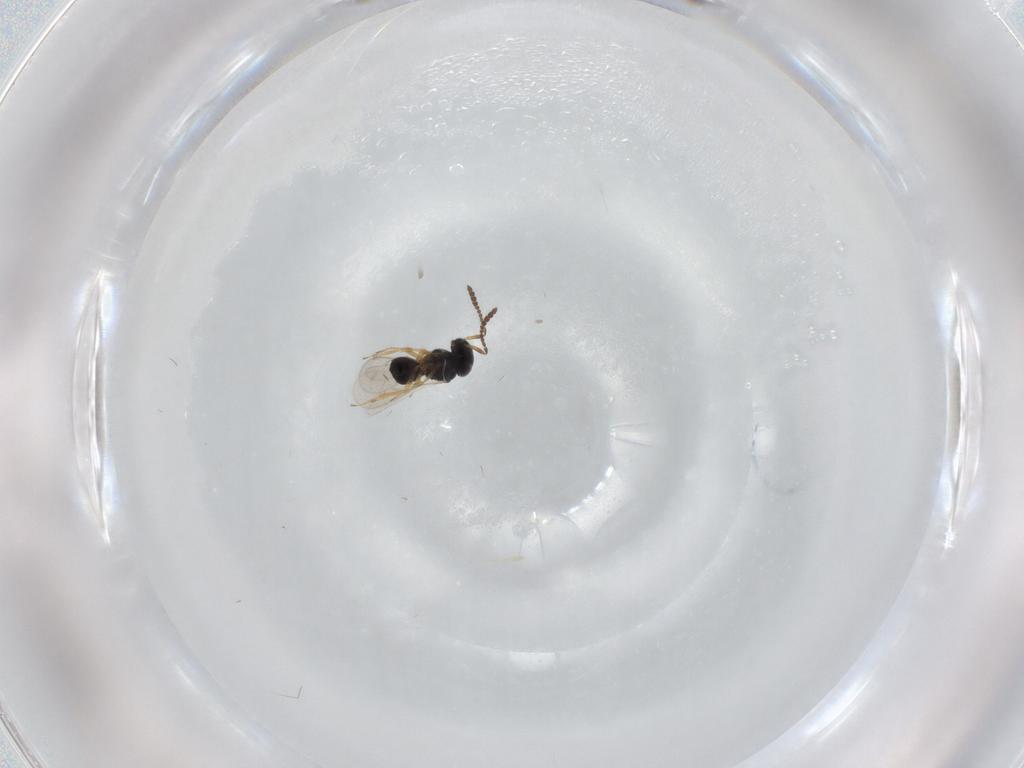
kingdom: Animalia
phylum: Arthropoda
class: Insecta
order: Hymenoptera
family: Scelionidae
